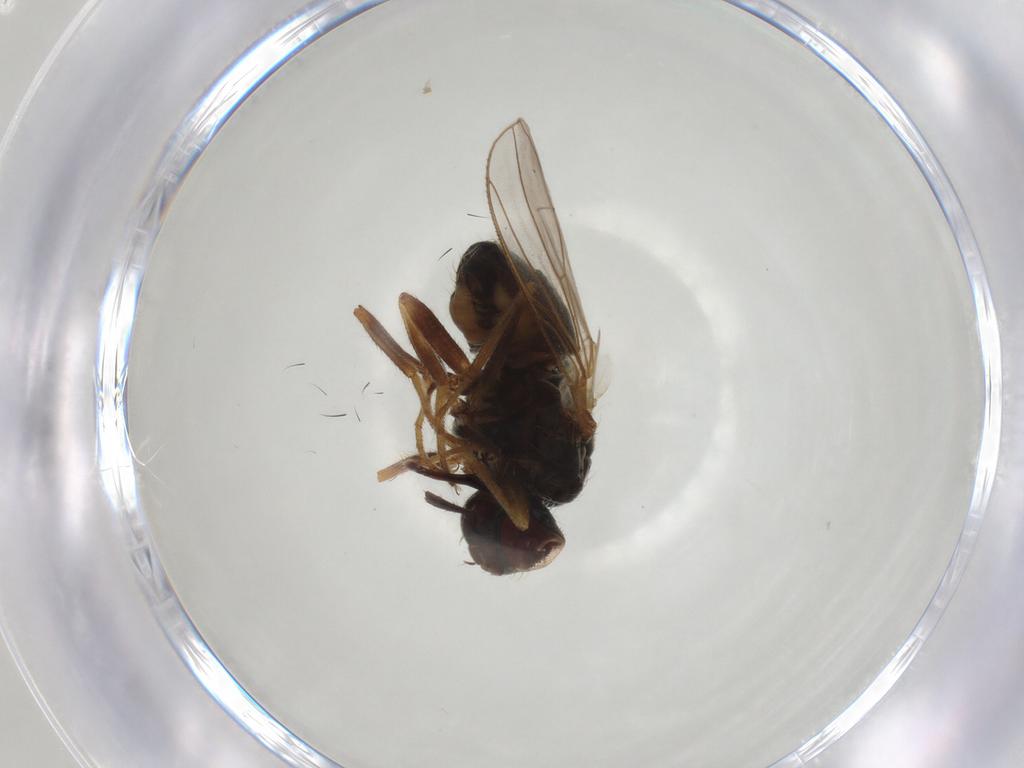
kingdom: Animalia
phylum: Arthropoda
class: Insecta
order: Diptera
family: Muscidae
